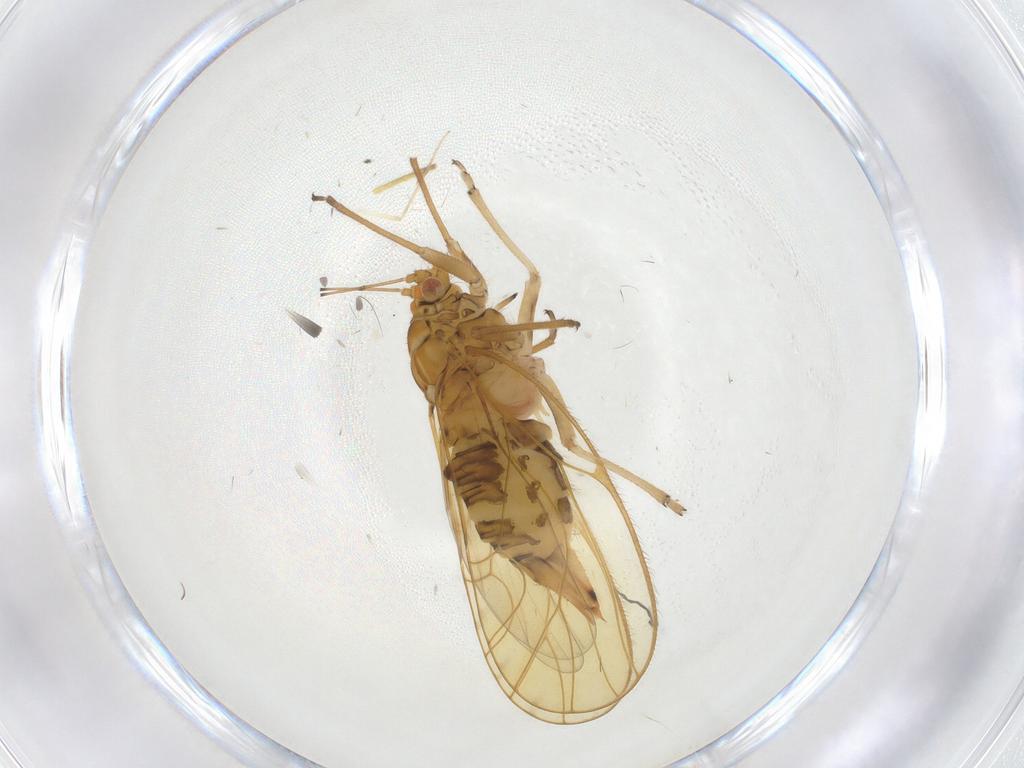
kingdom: Animalia
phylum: Arthropoda
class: Insecta
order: Hemiptera
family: Psyllidae
